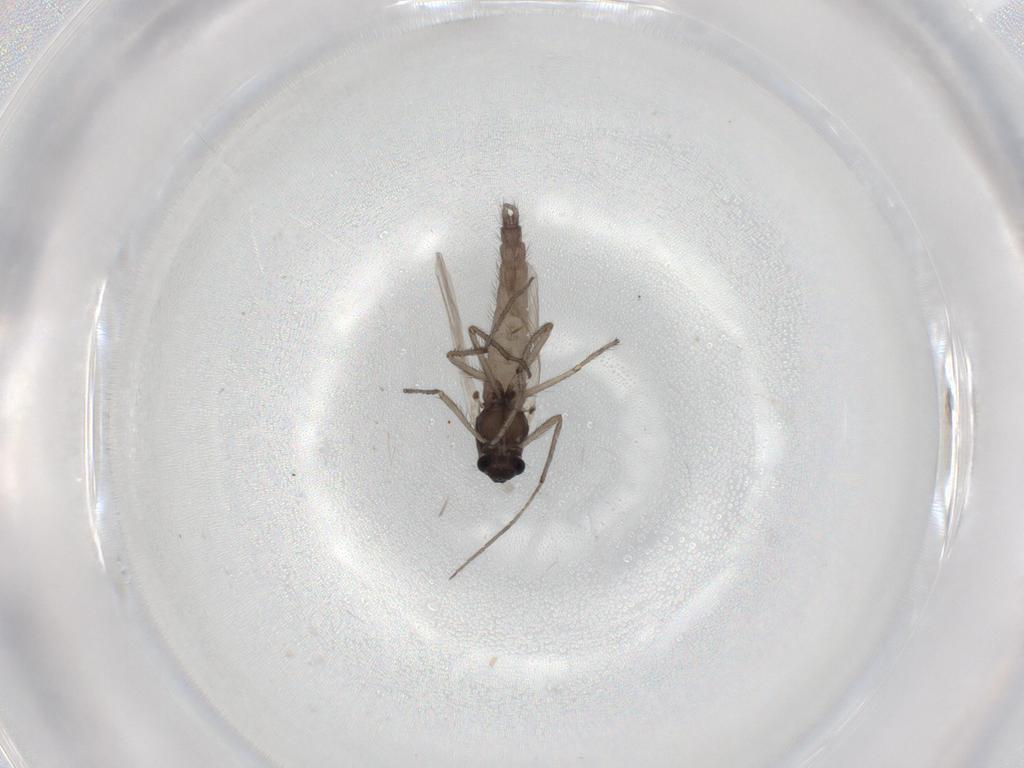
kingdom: Animalia
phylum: Arthropoda
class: Insecta
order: Diptera
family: Chironomidae
